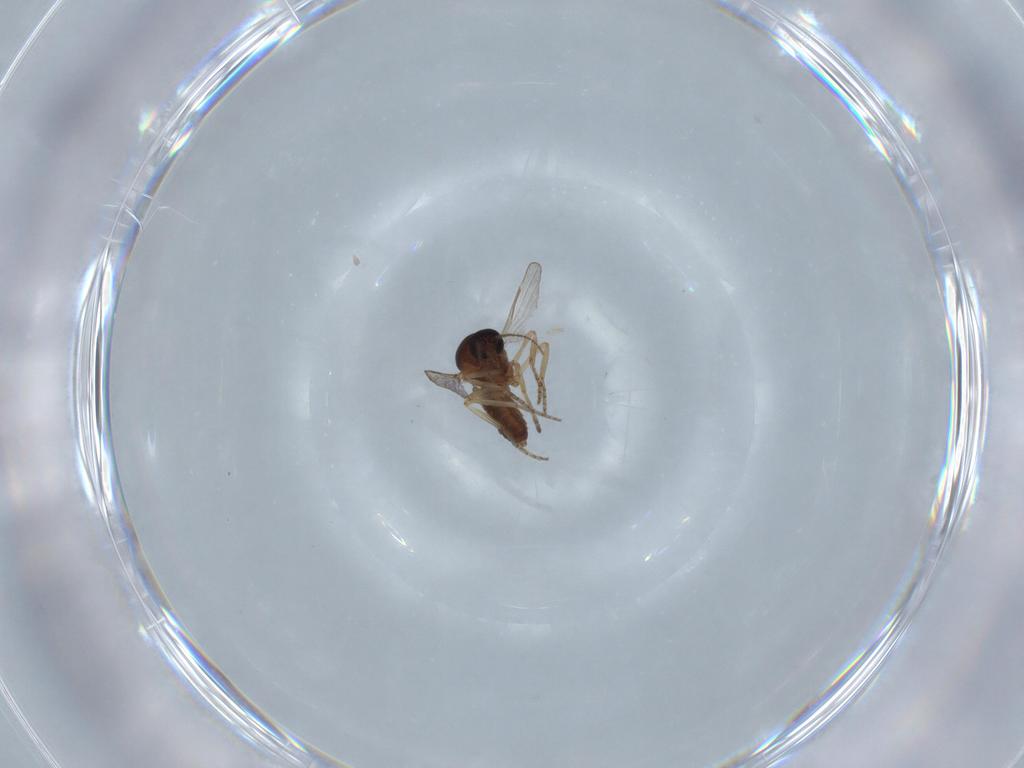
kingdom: Animalia
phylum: Arthropoda
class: Insecta
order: Diptera
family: Ceratopogonidae
